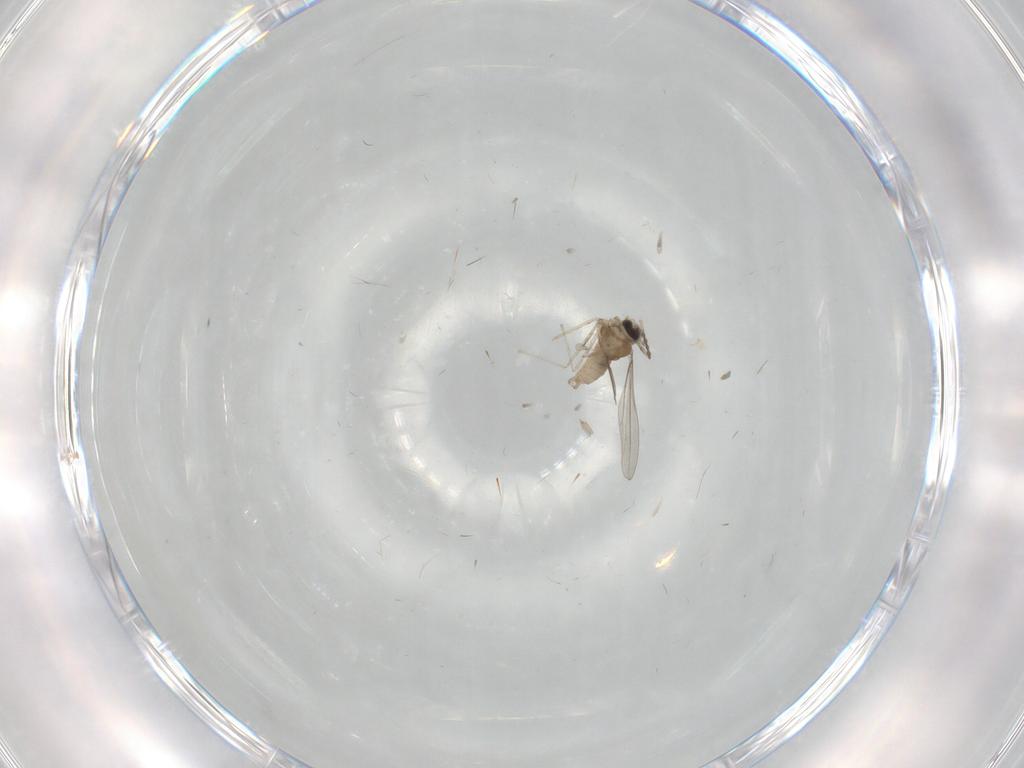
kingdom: Animalia
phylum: Arthropoda
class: Insecta
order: Diptera
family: Cecidomyiidae
